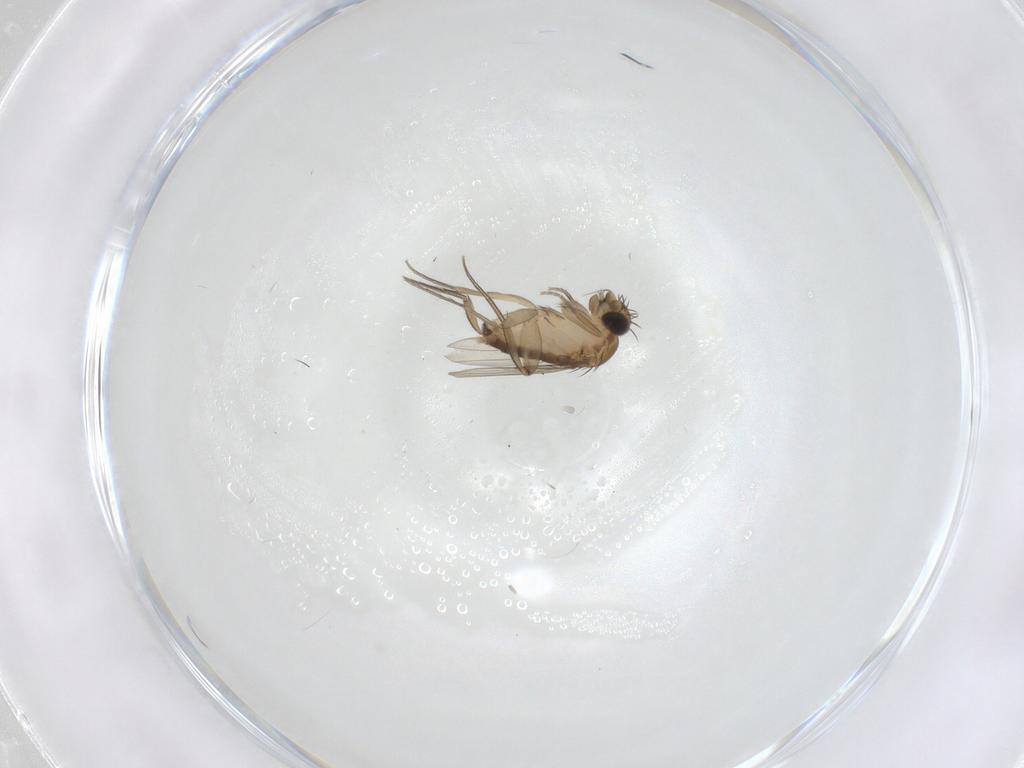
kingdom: Animalia
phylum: Arthropoda
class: Insecta
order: Diptera
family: Phoridae
